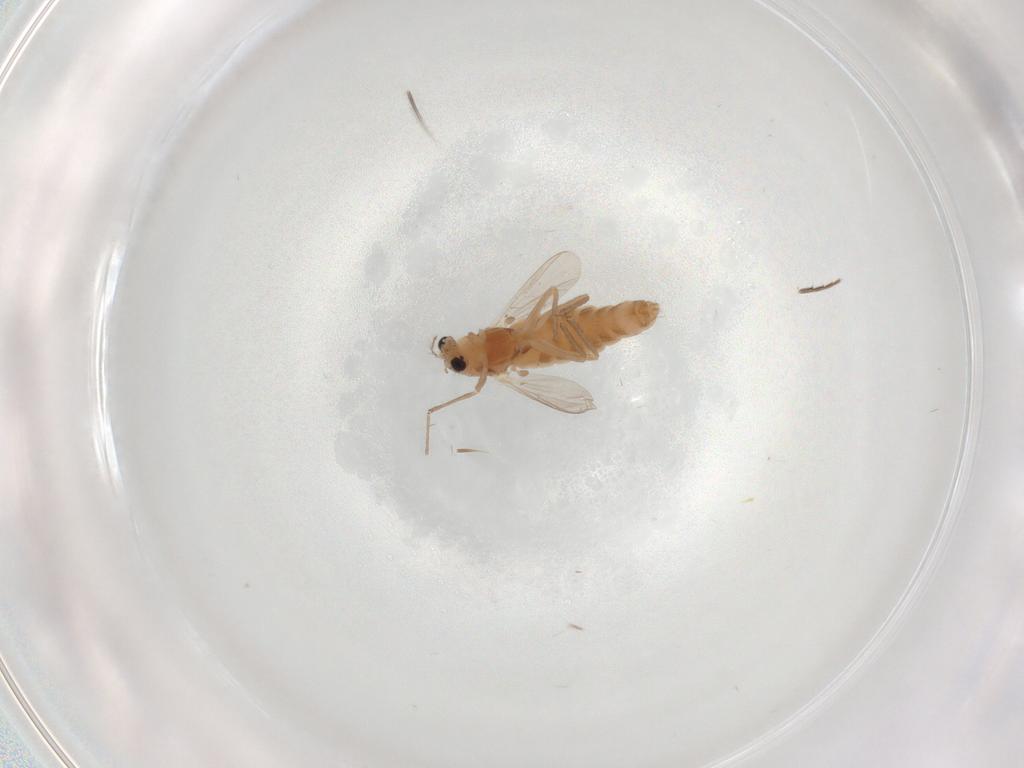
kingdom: Animalia
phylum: Arthropoda
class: Insecta
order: Diptera
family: Chironomidae
